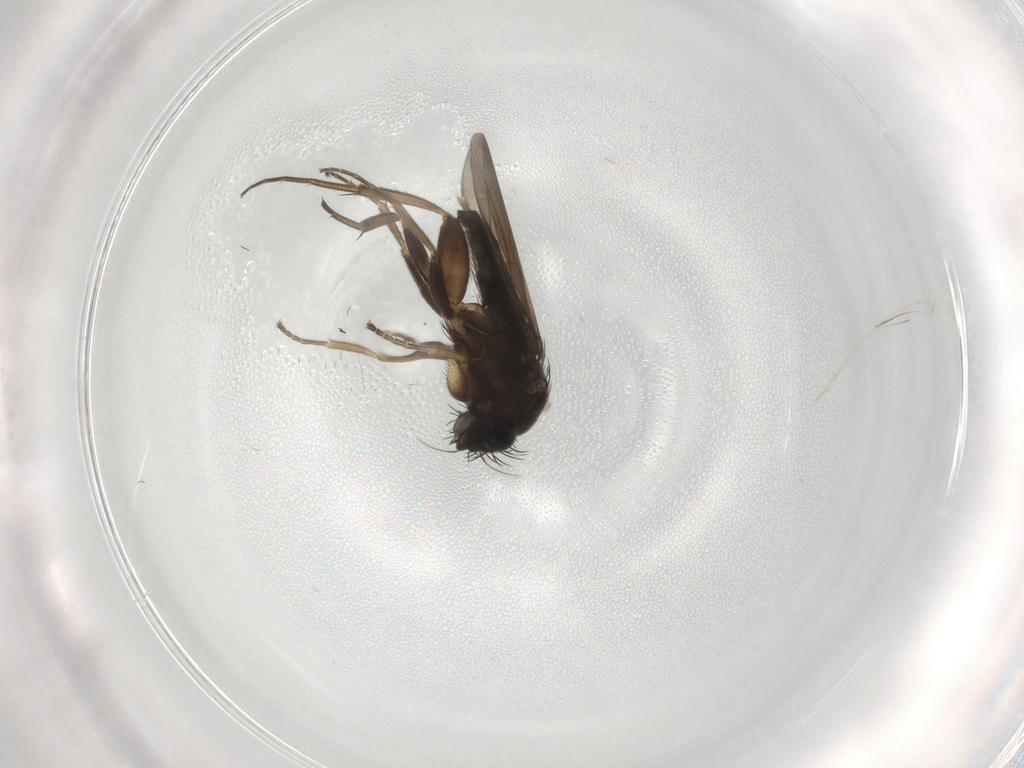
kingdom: Animalia
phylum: Arthropoda
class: Insecta
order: Diptera
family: Phoridae
